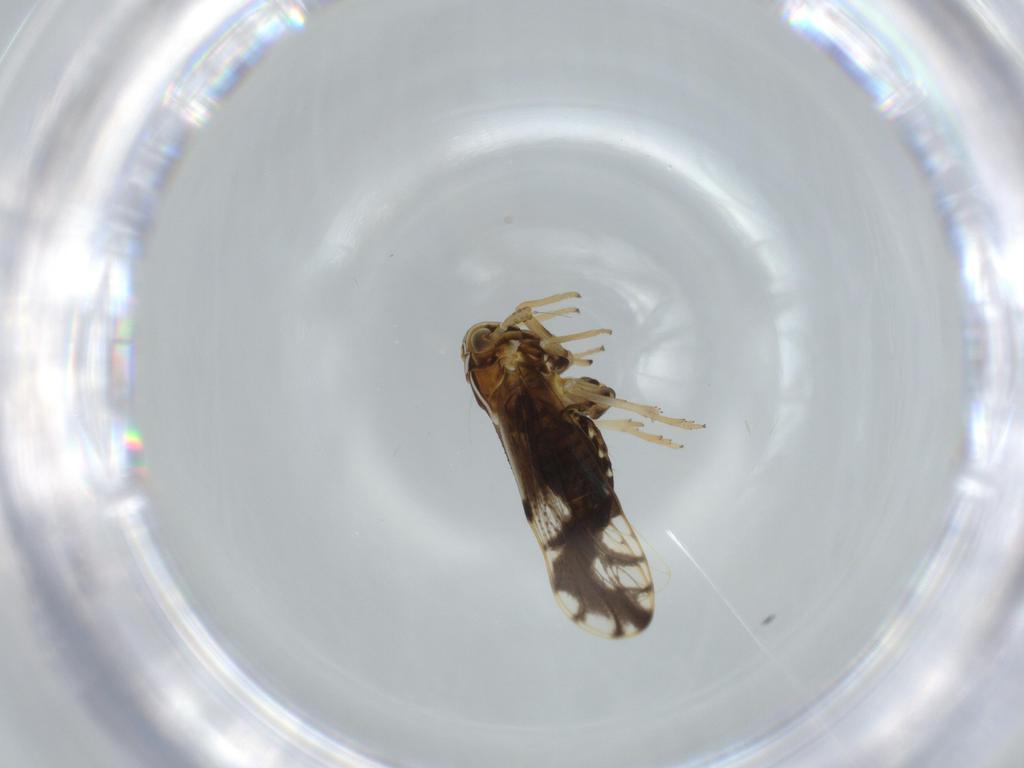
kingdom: Animalia
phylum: Arthropoda
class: Insecta
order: Hemiptera
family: Delphacidae
